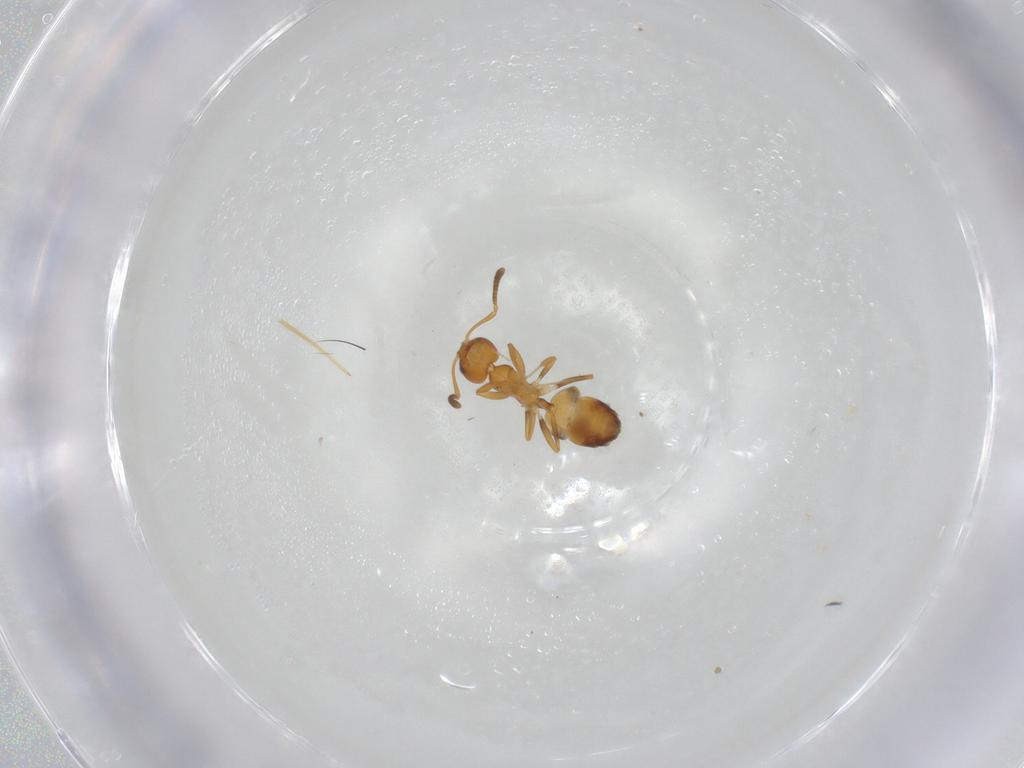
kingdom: Animalia
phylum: Arthropoda
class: Insecta
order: Hymenoptera
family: Formicidae
